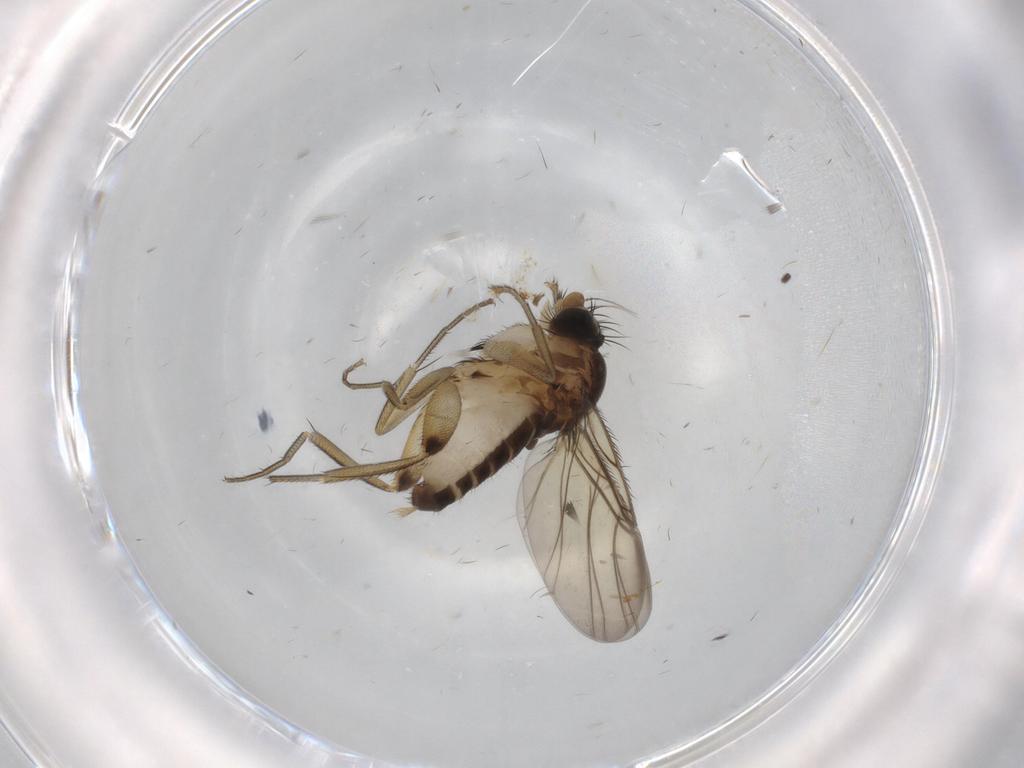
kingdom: Animalia
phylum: Arthropoda
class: Insecta
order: Diptera
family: Phoridae
